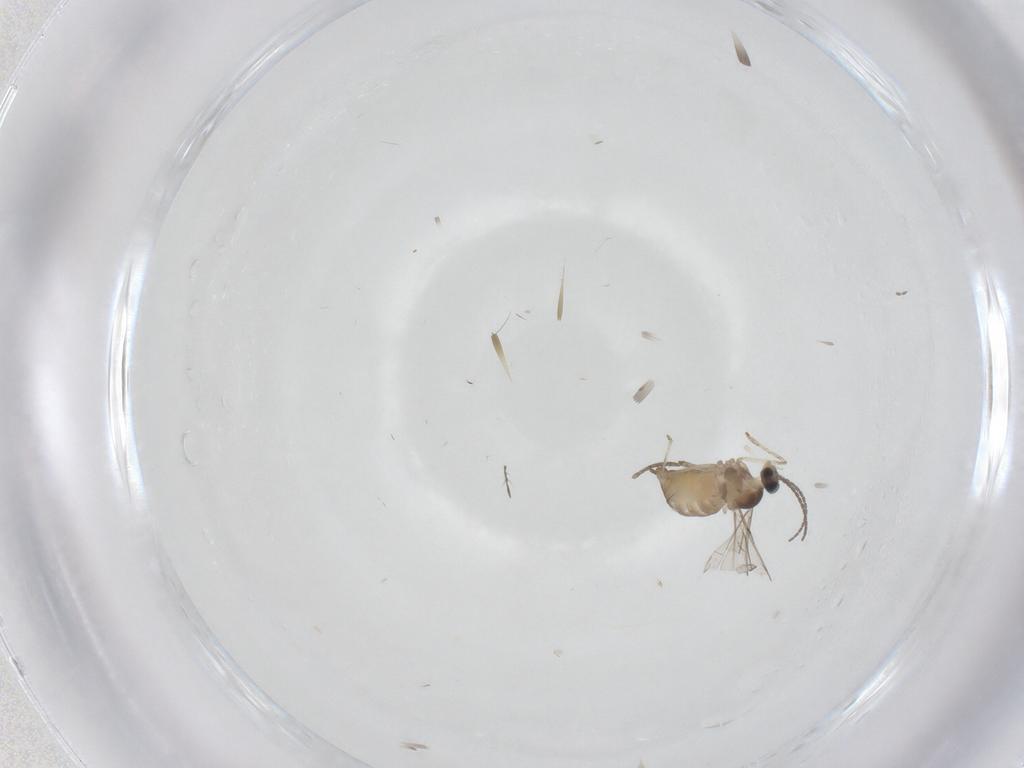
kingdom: Animalia
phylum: Arthropoda
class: Insecta
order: Diptera
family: Cecidomyiidae
